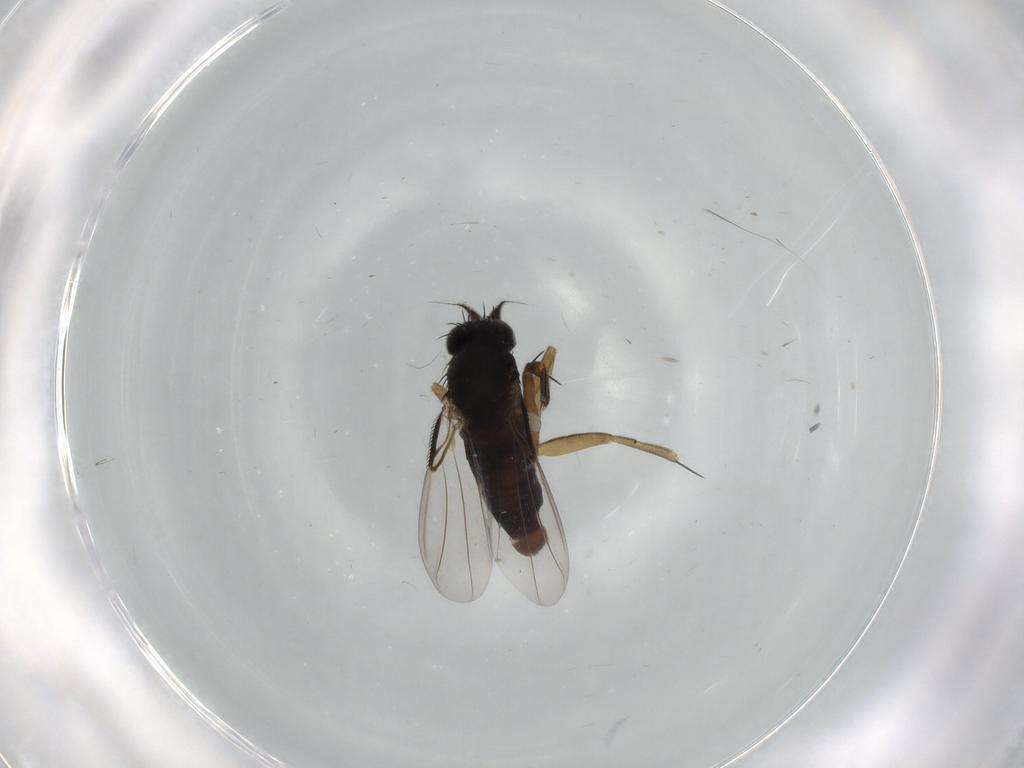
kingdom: Animalia
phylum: Arthropoda
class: Insecta
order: Diptera
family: Phoridae
